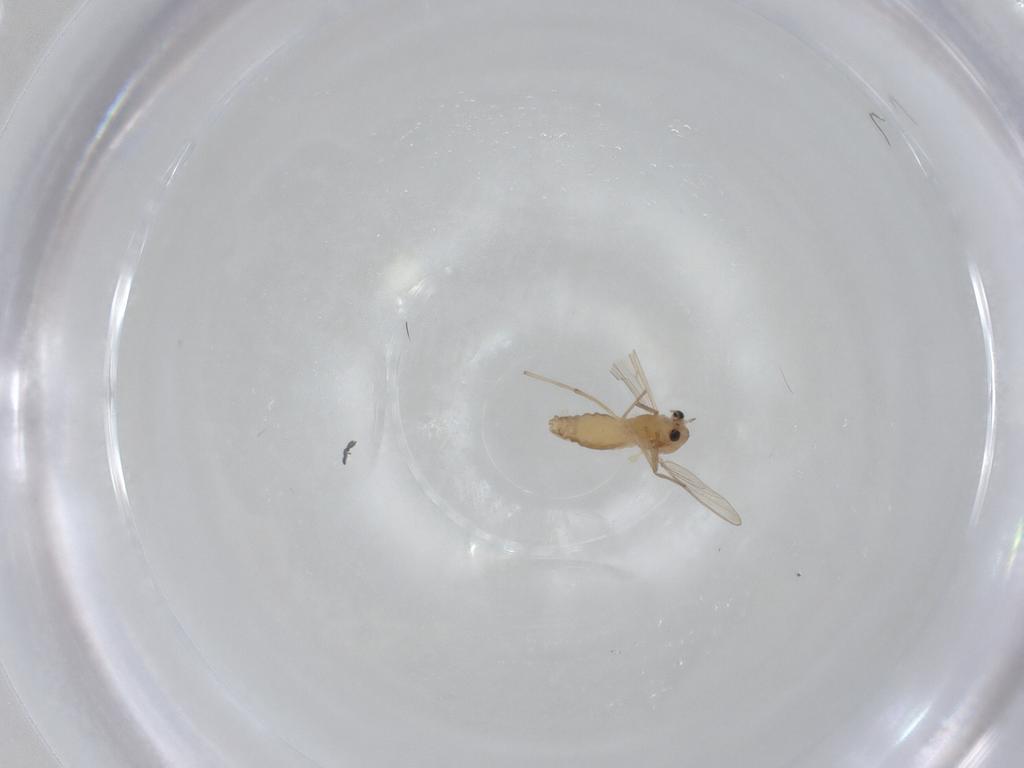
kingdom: Animalia
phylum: Arthropoda
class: Insecta
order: Diptera
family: Chironomidae
